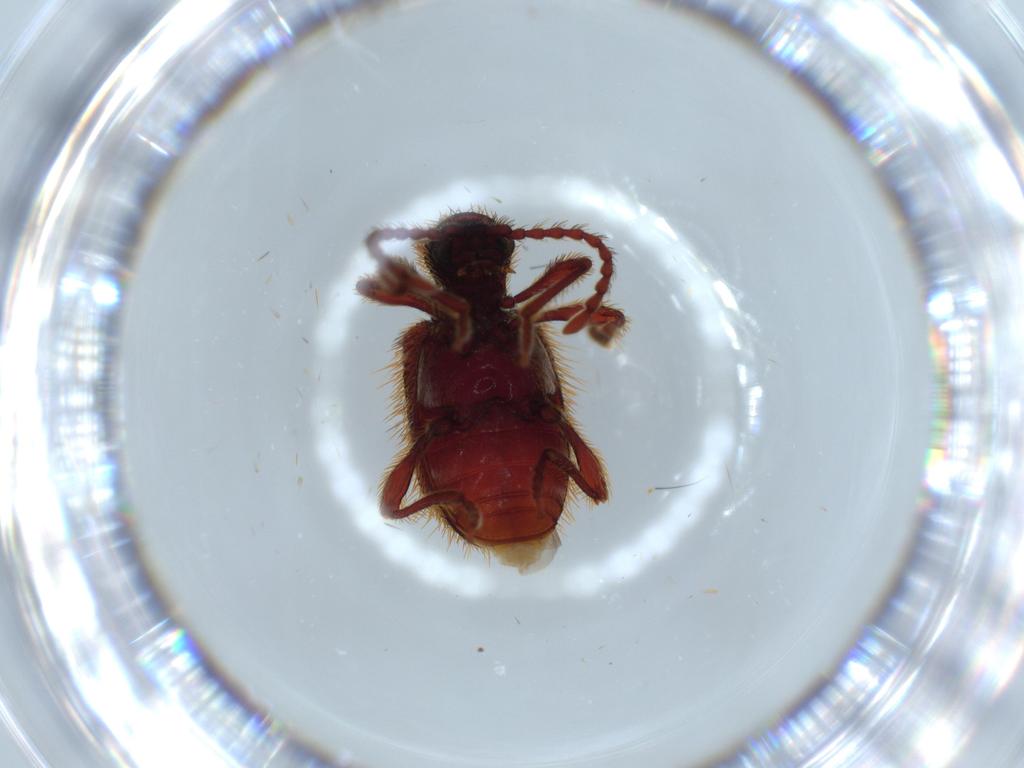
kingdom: Animalia
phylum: Arthropoda
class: Insecta
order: Coleoptera
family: Ptinidae
